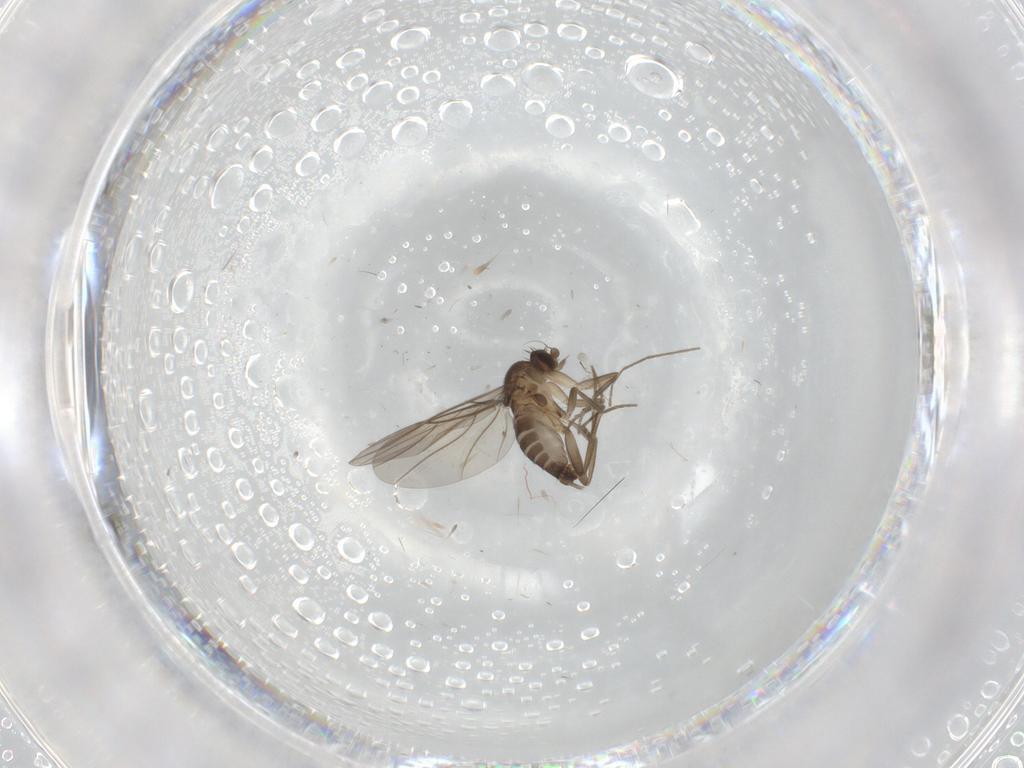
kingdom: Animalia
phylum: Arthropoda
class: Insecta
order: Diptera
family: Phoridae
